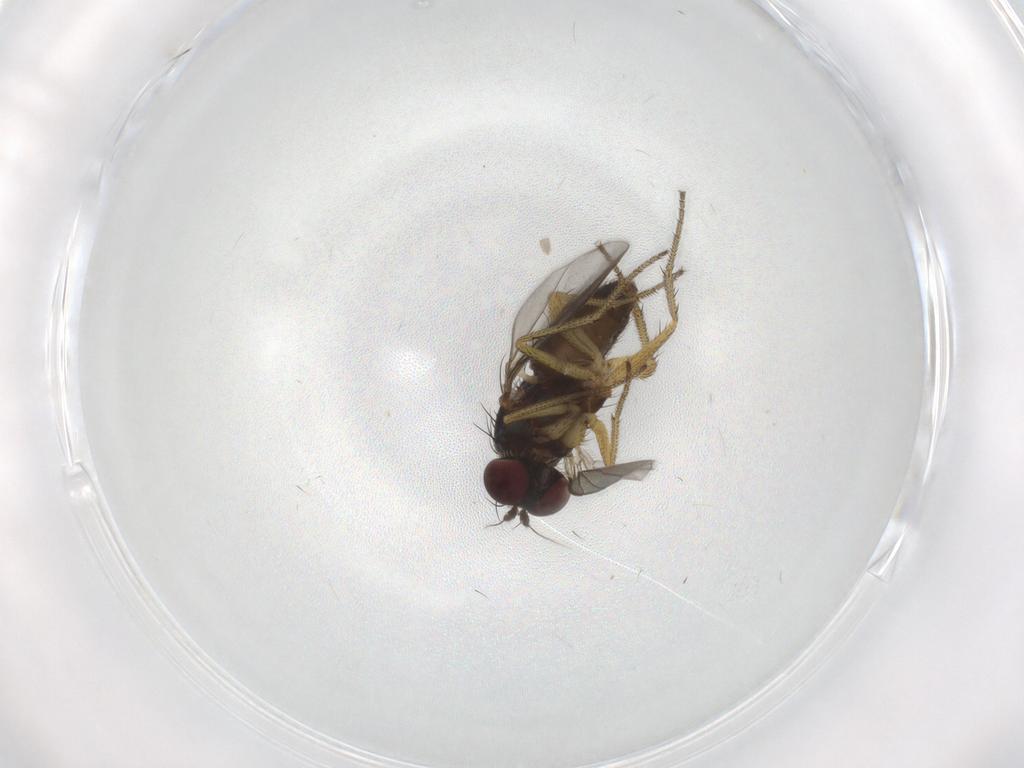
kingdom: Animalia
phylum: Arthropoda
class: Insecta
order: Diptera
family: Cecidomyiidae
